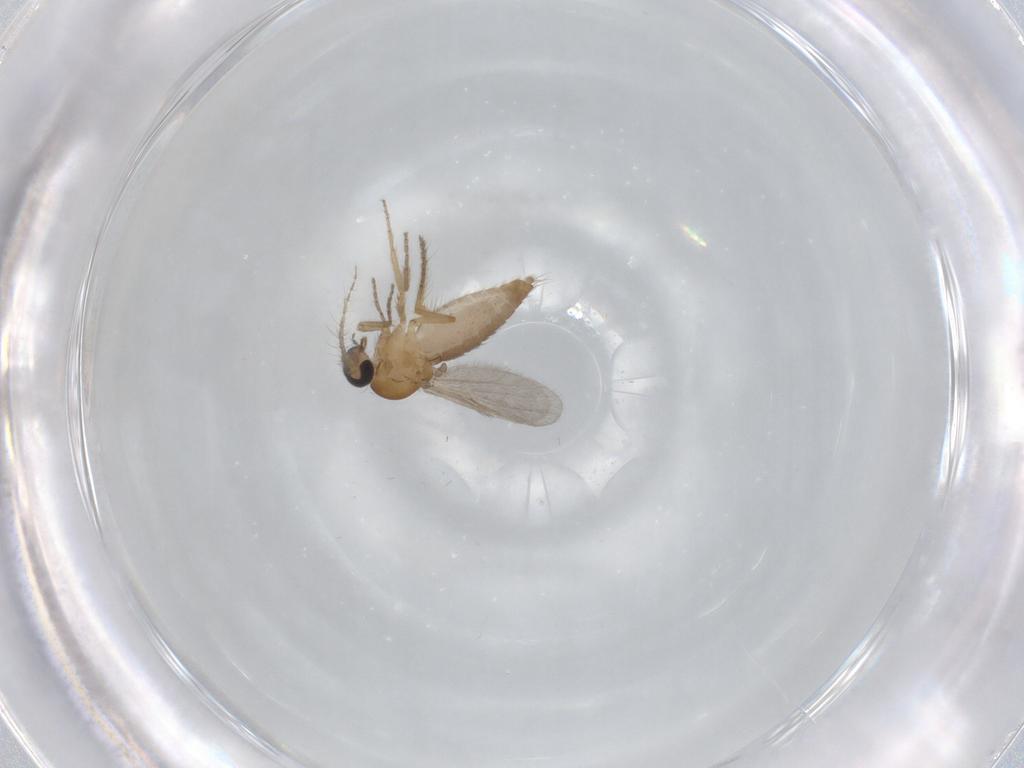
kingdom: Animalia
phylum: Arthropoda
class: Insecta
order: Diptera
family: Ceratopogonidae
